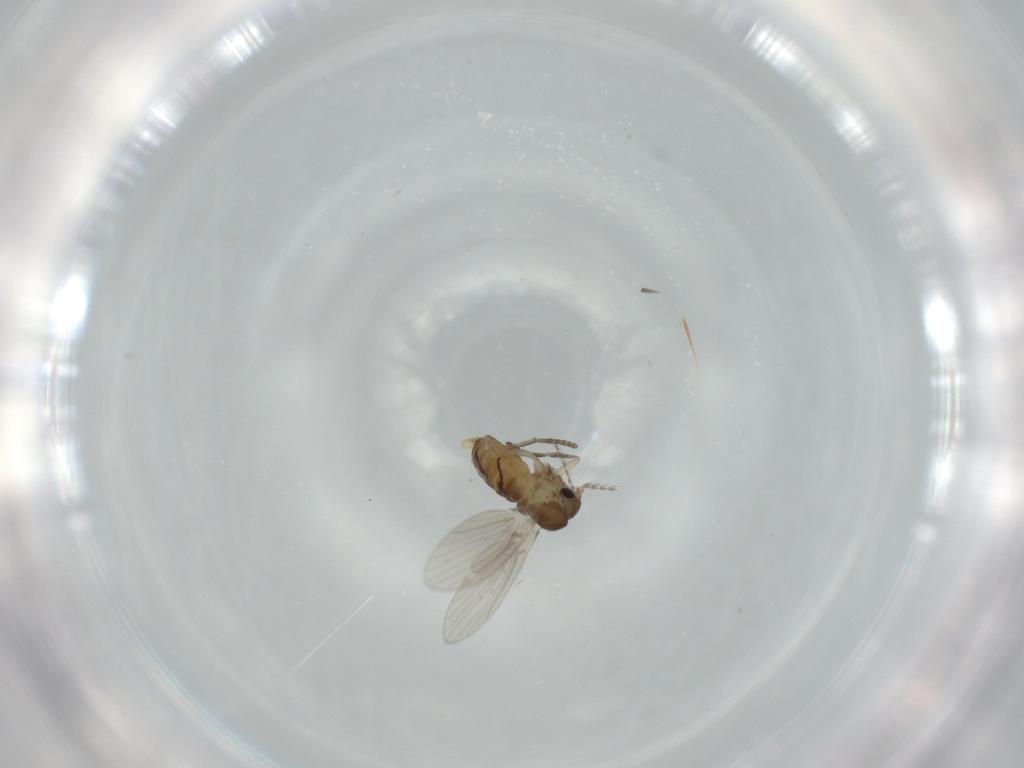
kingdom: Animalia
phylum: Arthropoda
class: Insecta
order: Diptera
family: Psychodidae
